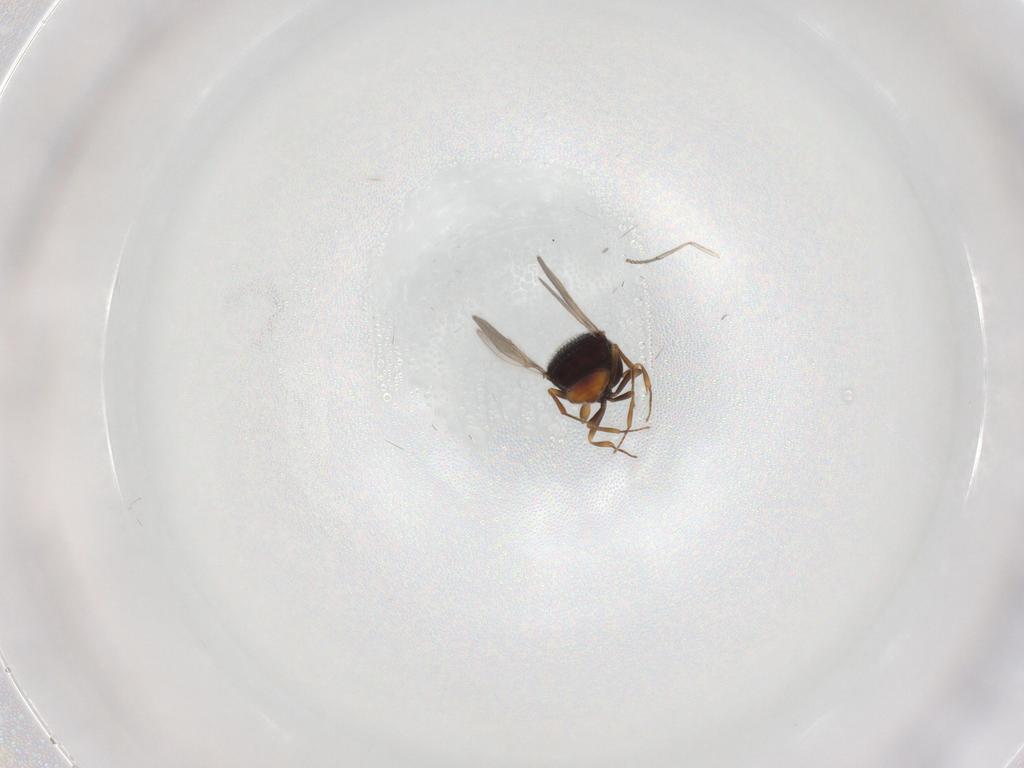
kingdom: Animalia
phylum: Arthropoda
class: Insecta
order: Hymenoptera
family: Scelionidae
